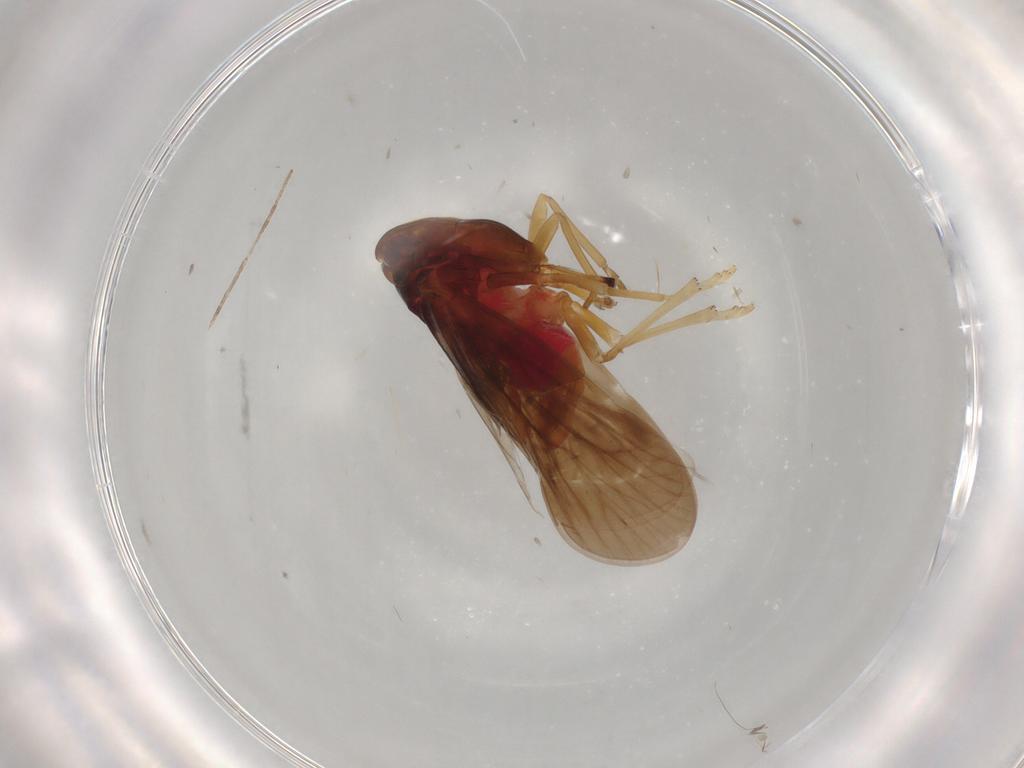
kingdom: Animalia
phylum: Arthropoda
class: Insecta
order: Hemiptera
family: Derbidae
